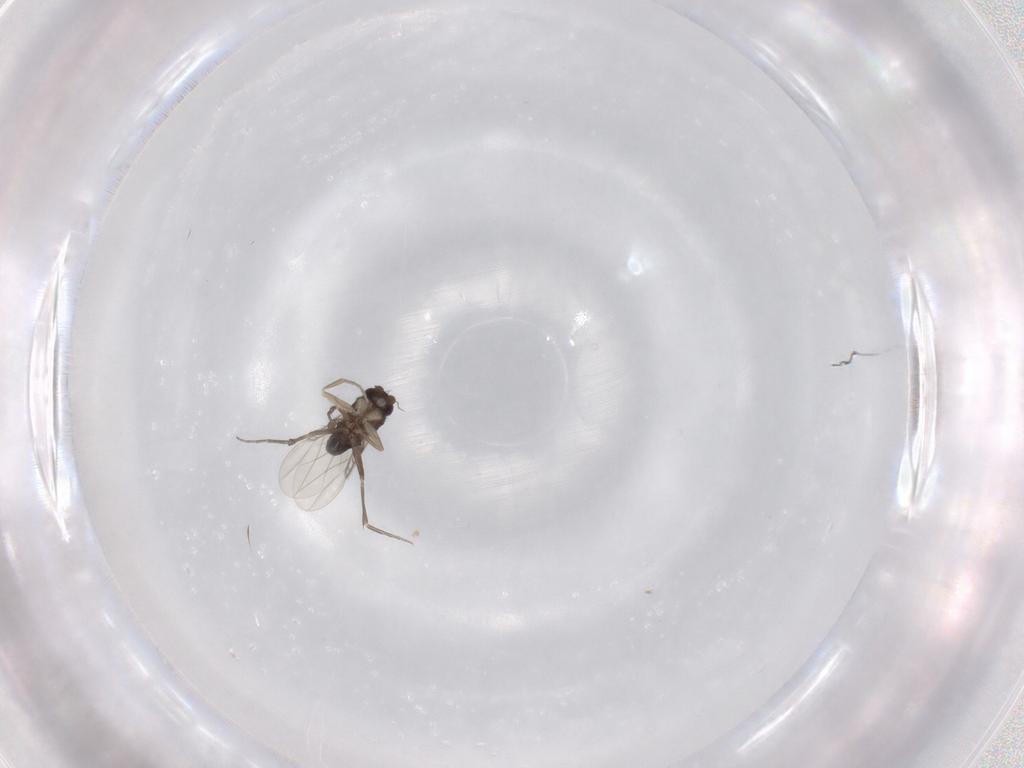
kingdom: Animalia
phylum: Arthropoda
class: Insecta
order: Diptera
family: Phoridae
